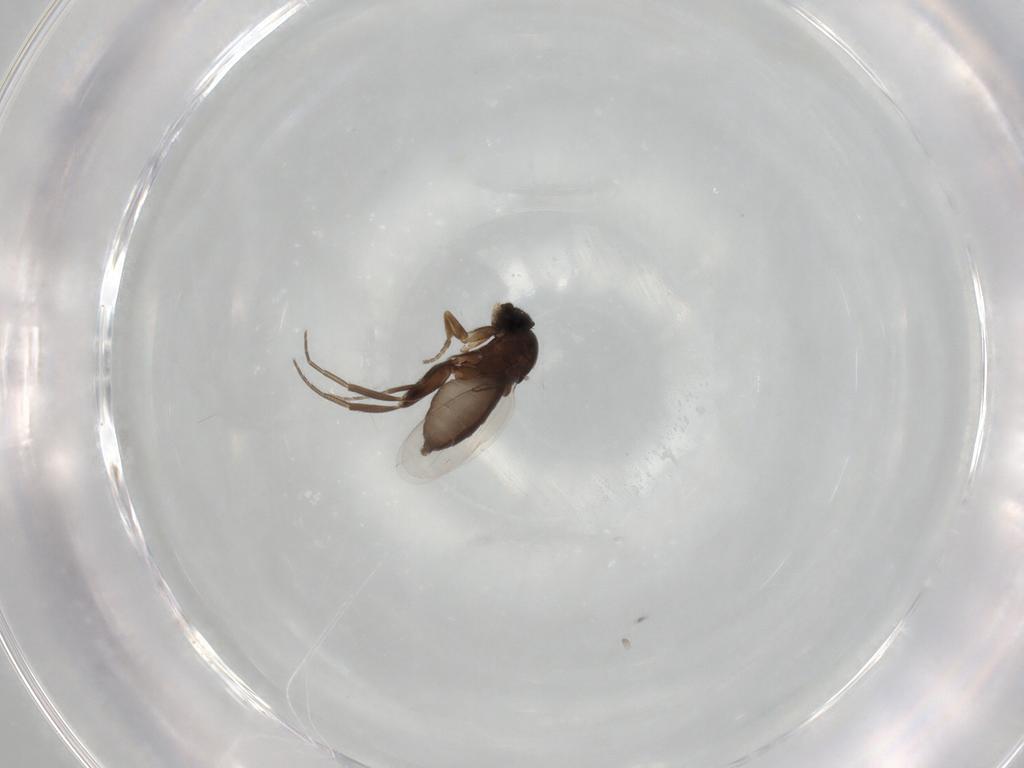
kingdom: Animalia
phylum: Arthropoda
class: Insecta
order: Diptera
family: Phoridae
